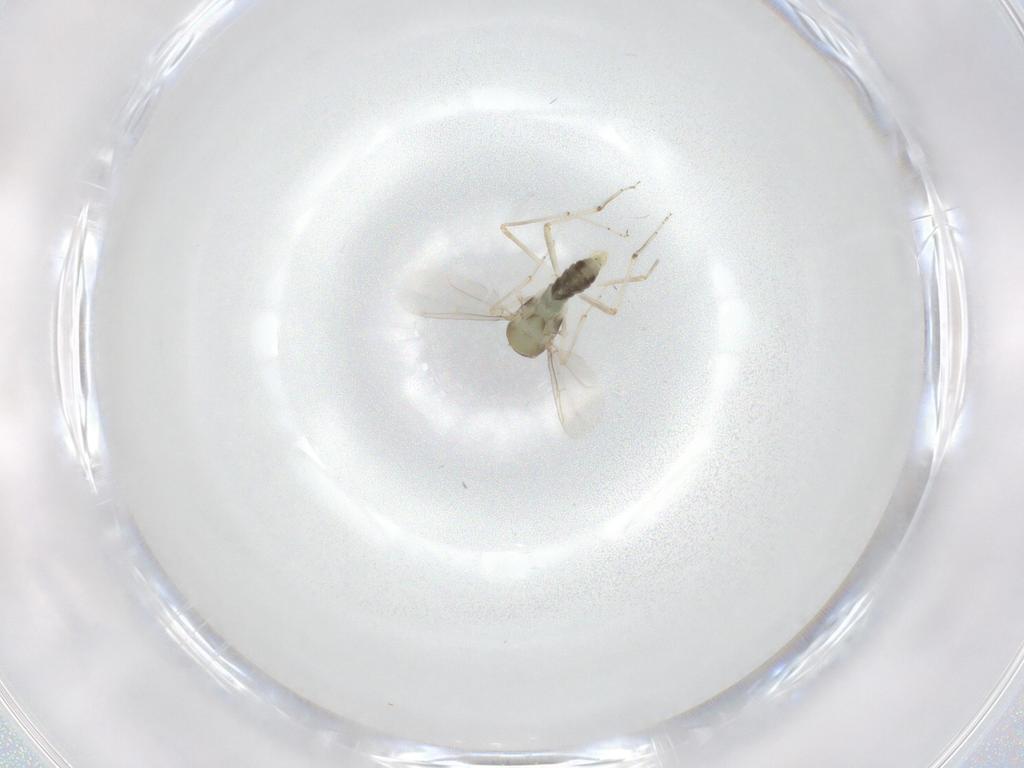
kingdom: Animalia
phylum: Arthropoda
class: Insecta
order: Diptera
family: Ceratopogonidae
